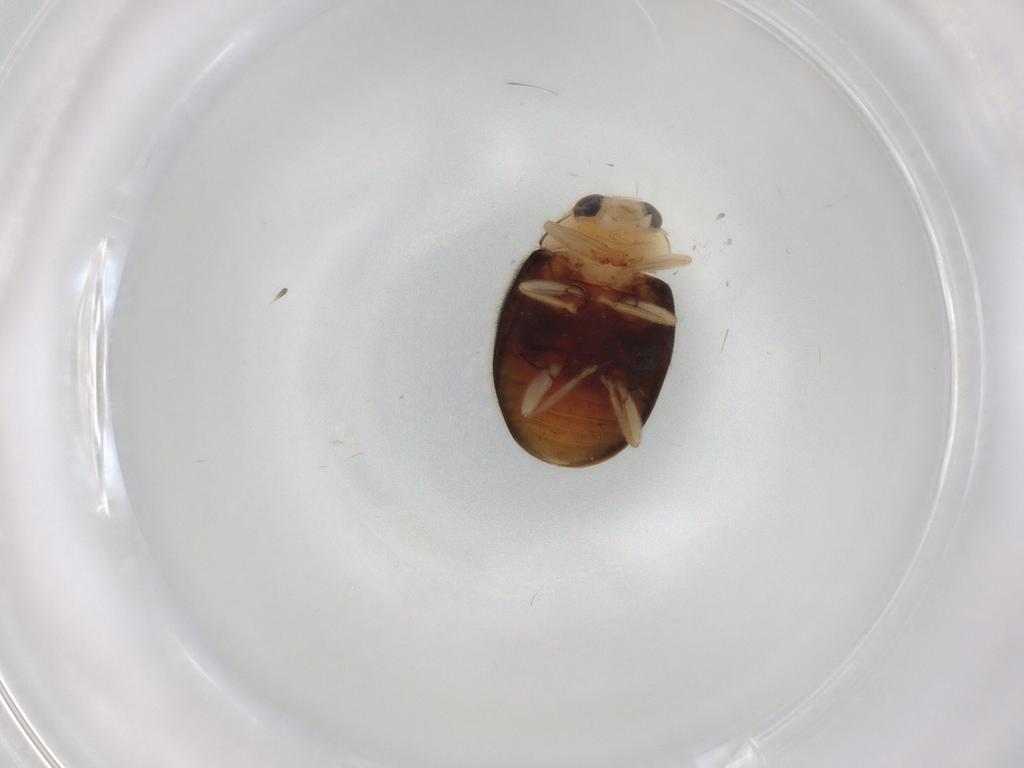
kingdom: Animalia
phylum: Arthropoda
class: Insecta
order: Coleoptera
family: Coccinellidae
